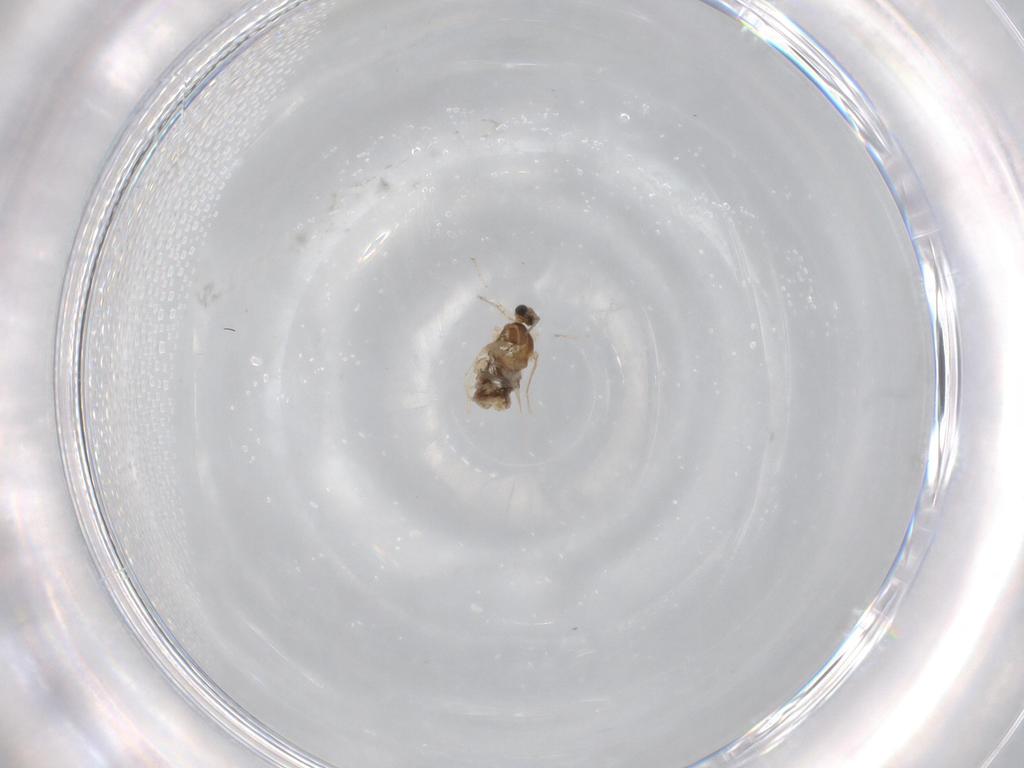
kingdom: Animalia
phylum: Arthropoda
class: Insecta
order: Diptera
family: Cecidomyiidae
